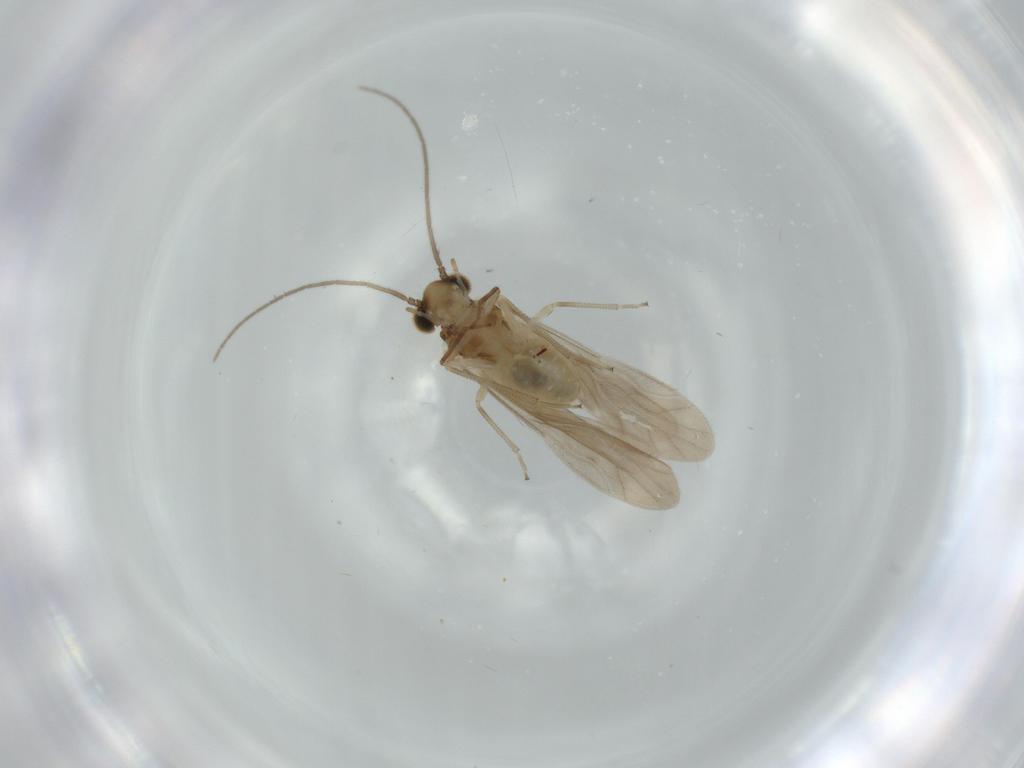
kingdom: Animalia
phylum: Arthropoda
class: Insecta
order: Psocodea
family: Caeciliusidae
